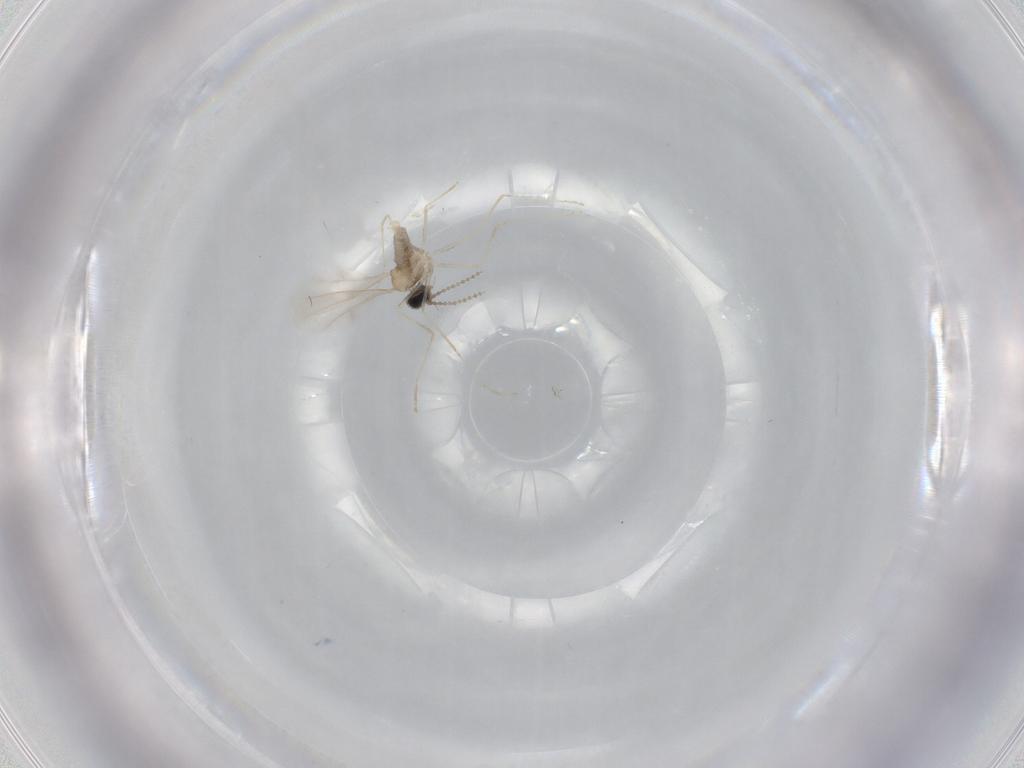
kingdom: Animalia
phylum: Arthropoda
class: Insecta
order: Diptera
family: Cecidomyiidae
